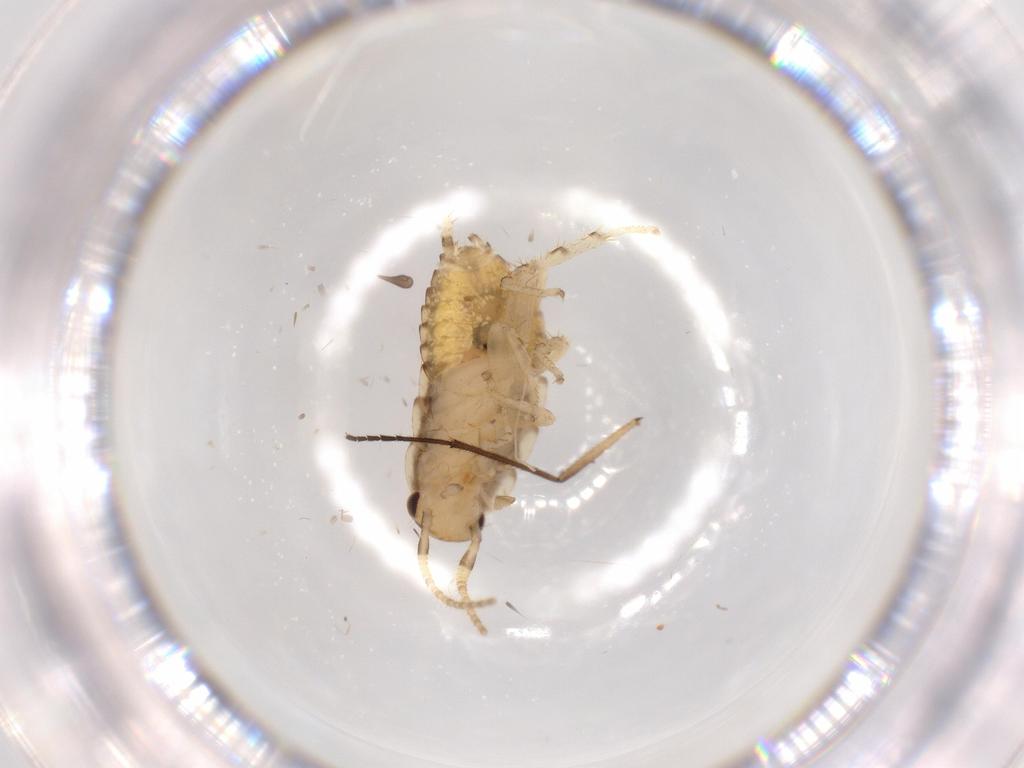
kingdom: Animalia
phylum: Arthropoda
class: Insecta
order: Blattodea
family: Ectobiidae
